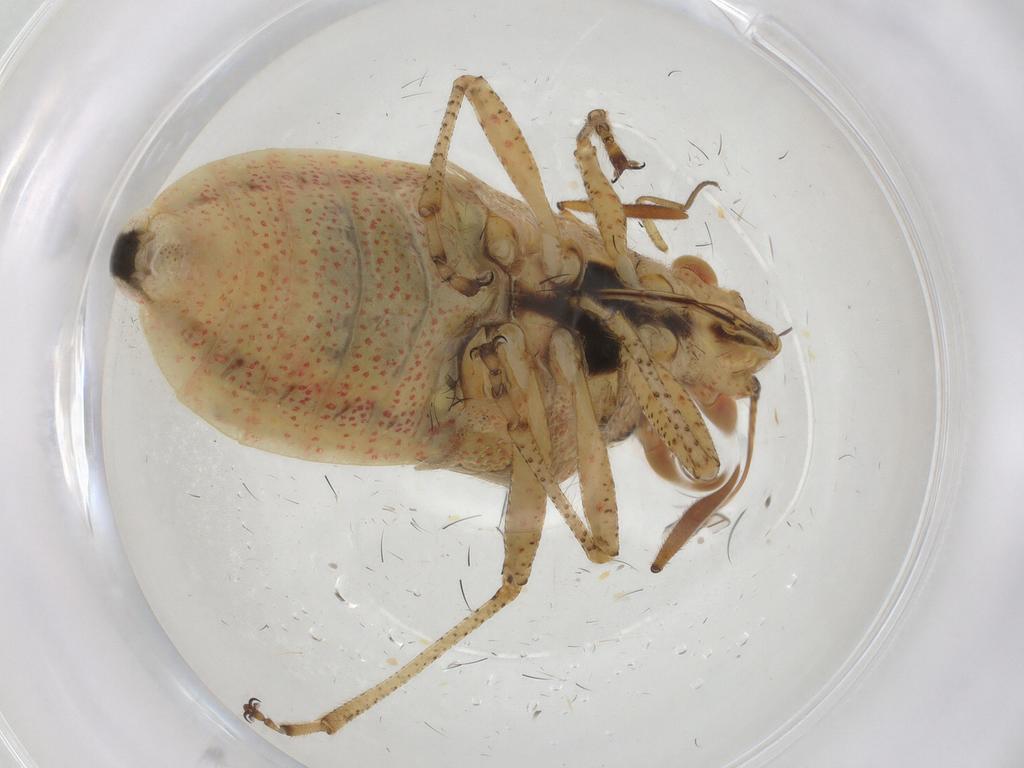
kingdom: Animalia
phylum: Arthropoda
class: Insecta
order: Hemiptera
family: Rhopalidae
